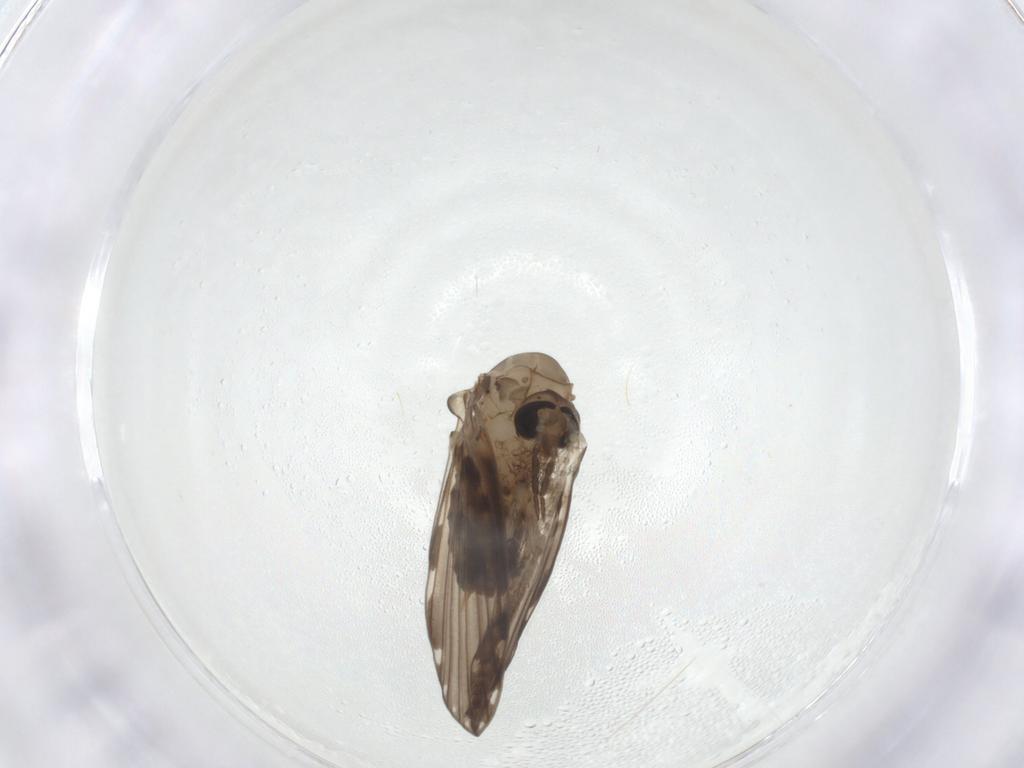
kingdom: Animalia
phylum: Arthropoda
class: Insecta
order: Diptera
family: Psychodidae
